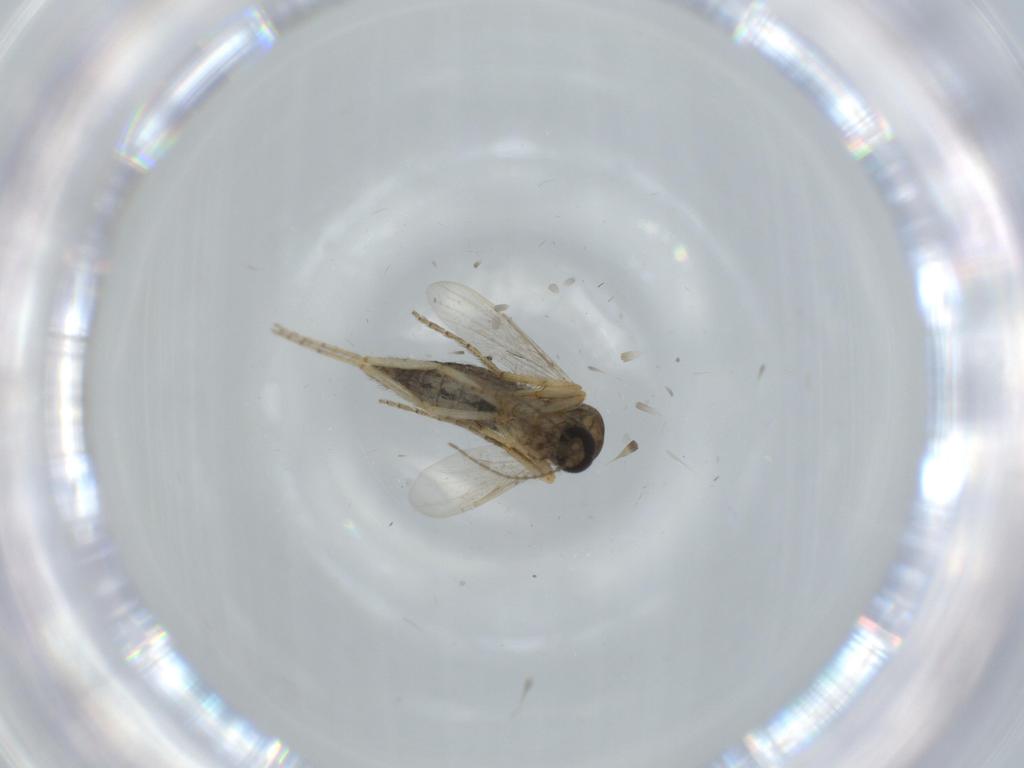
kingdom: Animalia
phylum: Arthropoda
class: Insecta
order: Diptera
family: Ceratopogonidae
